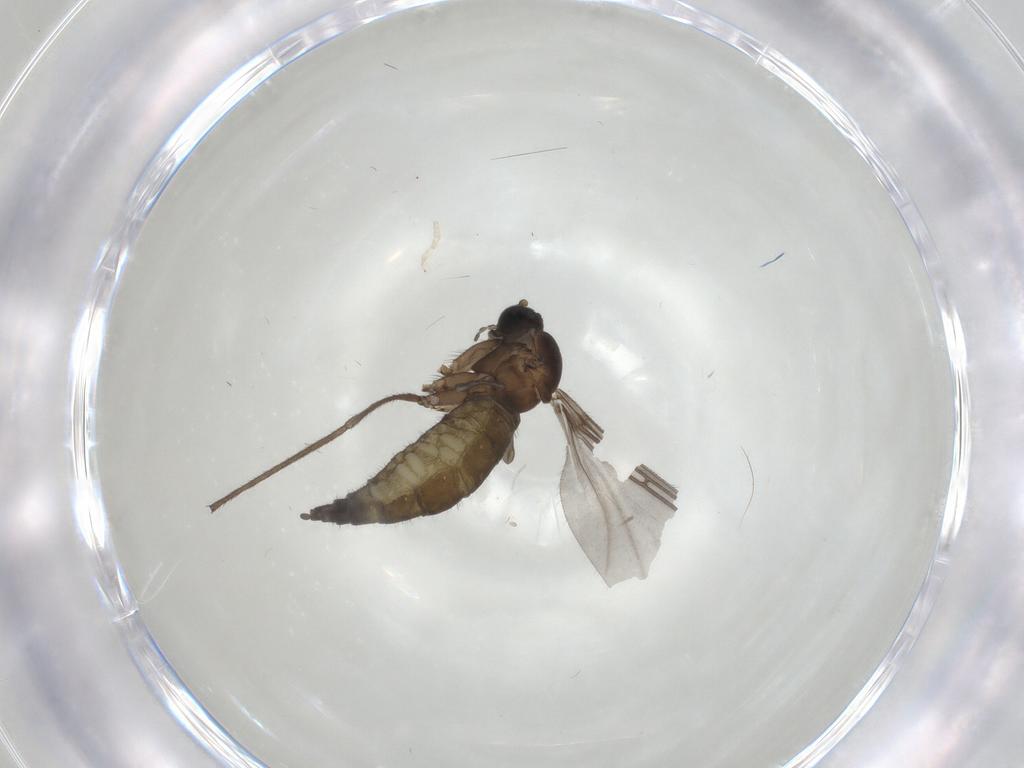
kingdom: Animalia
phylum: Arthropoda
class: Insecta
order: Diptera
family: Sciaridae
